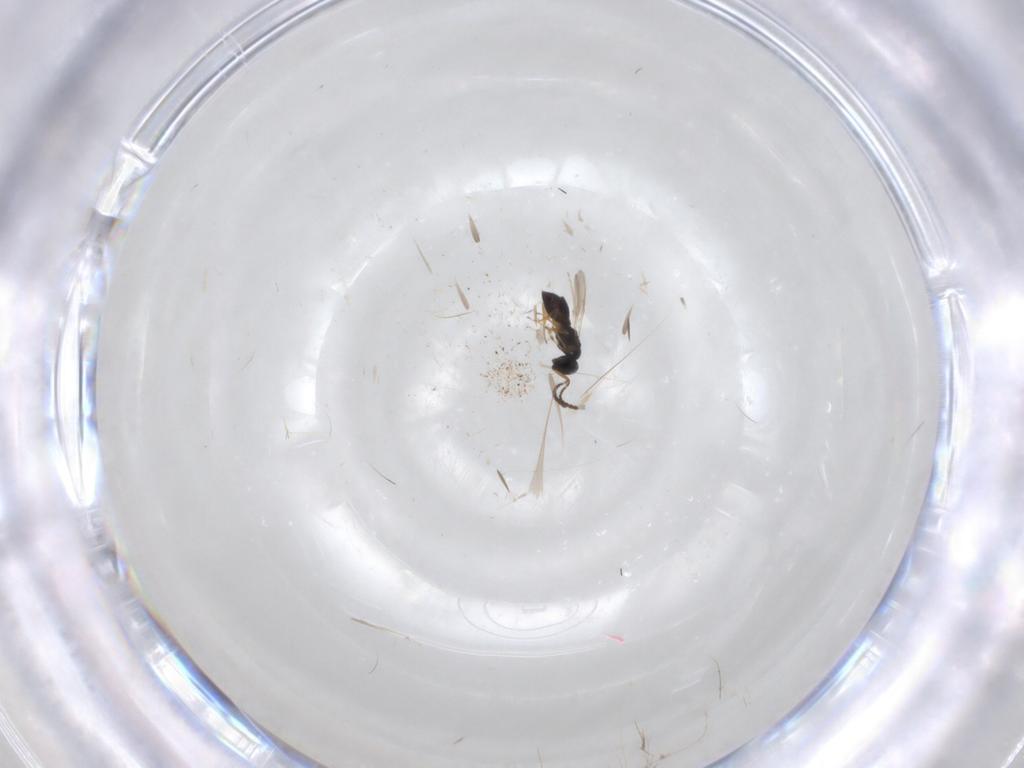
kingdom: Animalia
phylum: Arthropoda
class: Insecta
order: Hymenoptera
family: Scelionidae
